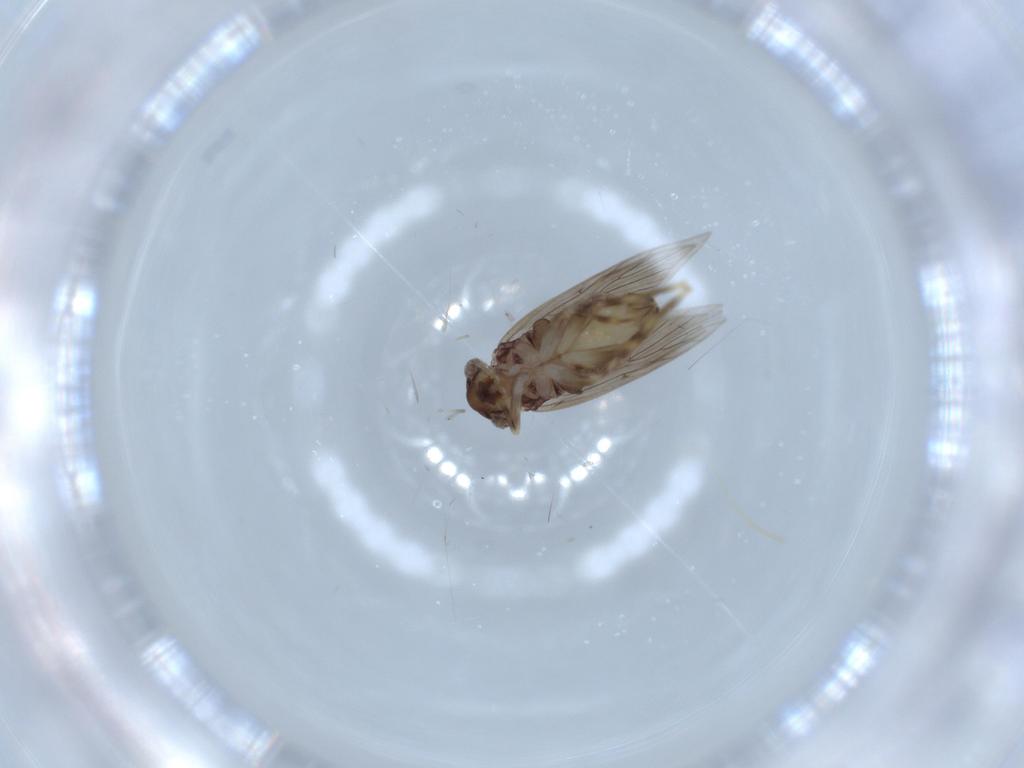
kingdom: Animalia
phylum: Arthropoda
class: Insecta
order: Psocodea
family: Lepidopsocidae
